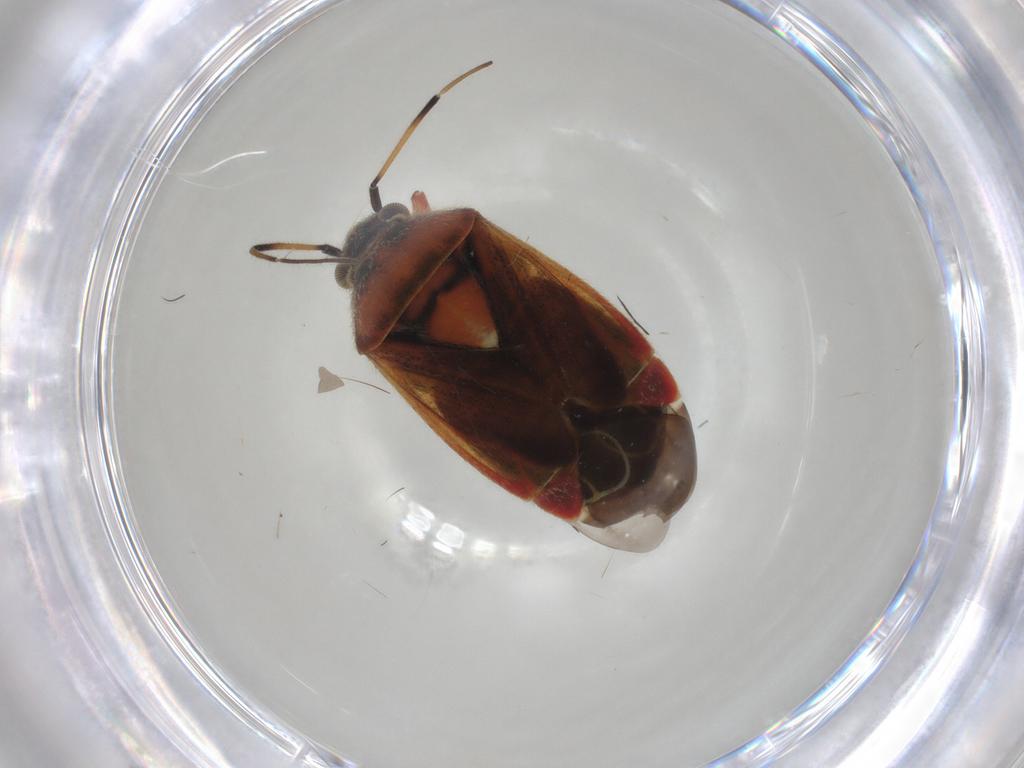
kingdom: Animalia
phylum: Arthropoda
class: Insecta
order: Hemiptera
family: Miridae
